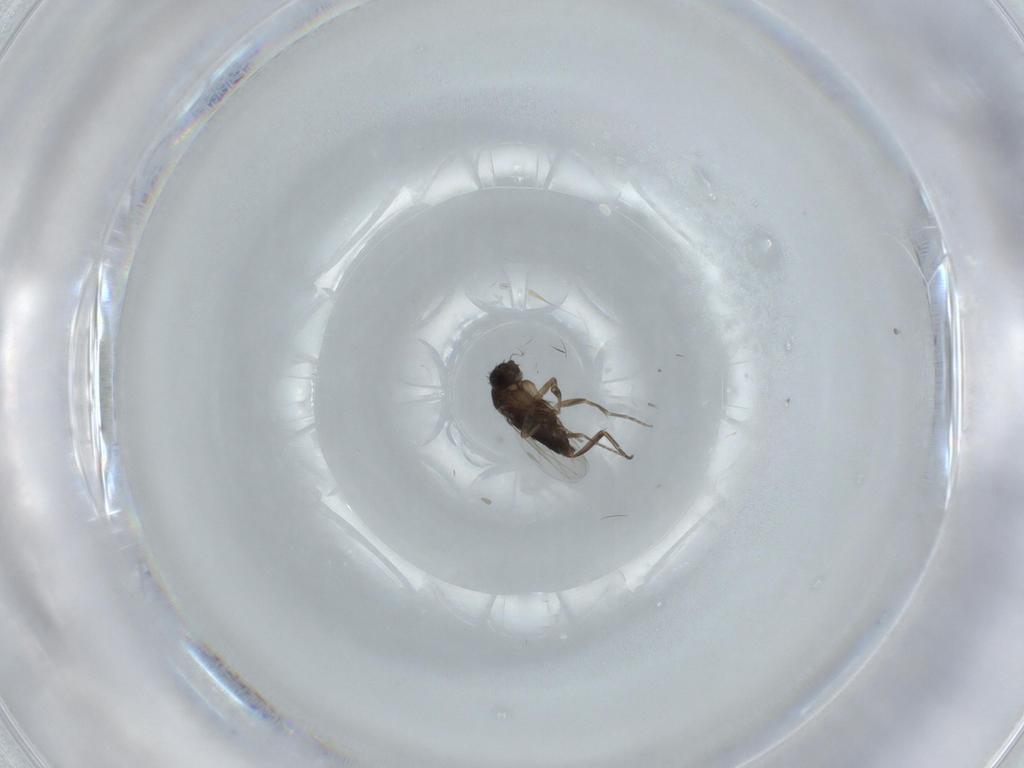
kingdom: Animalia
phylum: Arthropoda
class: Insecta
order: Diptera
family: Phoridae
